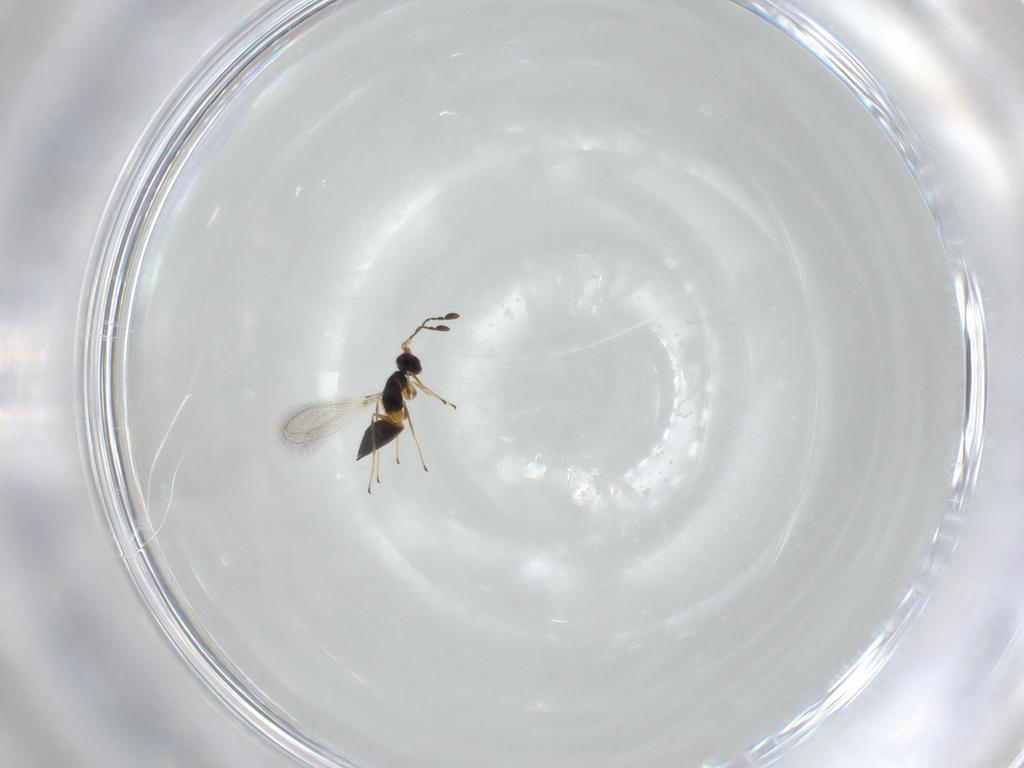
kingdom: Animalia
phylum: Arthropoda
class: Insecta
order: Hymenoptera
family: Mymaridae
